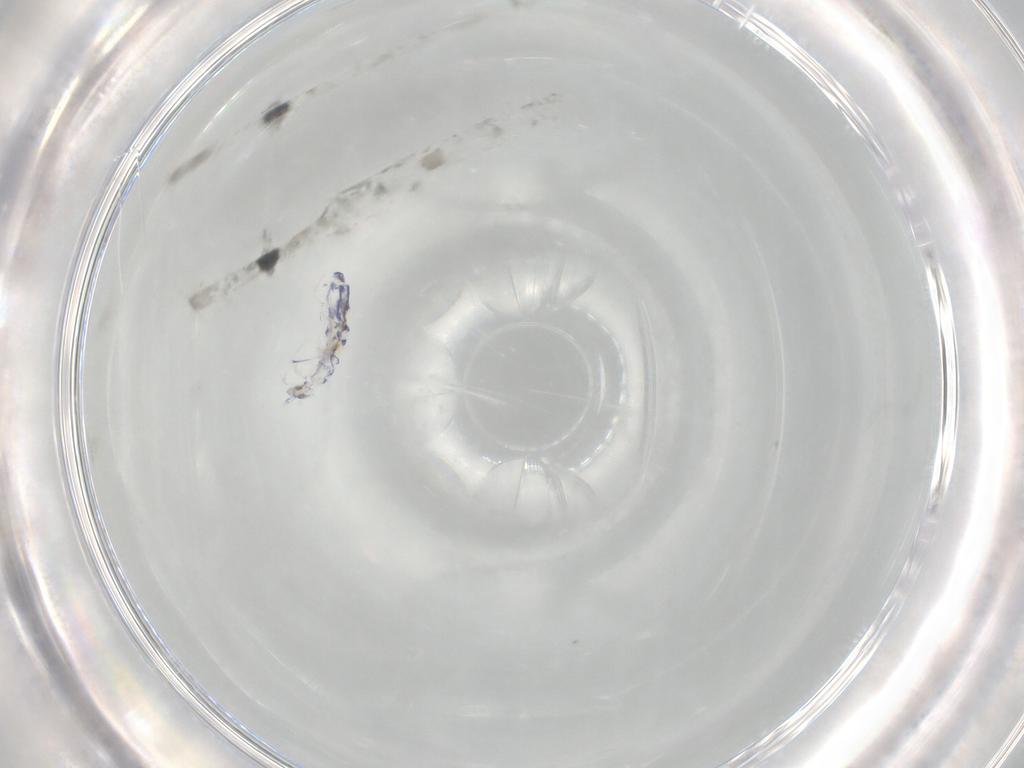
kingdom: Animalia
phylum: Arthropoda
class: Collembola
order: Entomobryomorpha
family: Entomobryidae
